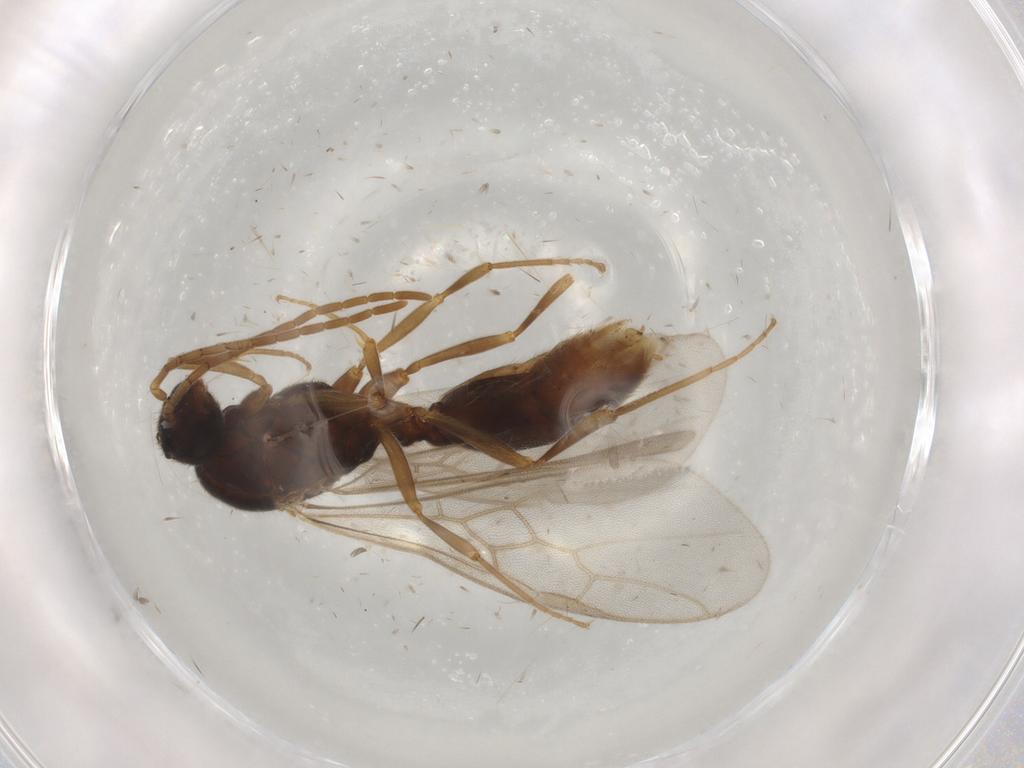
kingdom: Animalia
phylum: Arthropoda
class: Insecta
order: Hymenoptera
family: Formicidae
